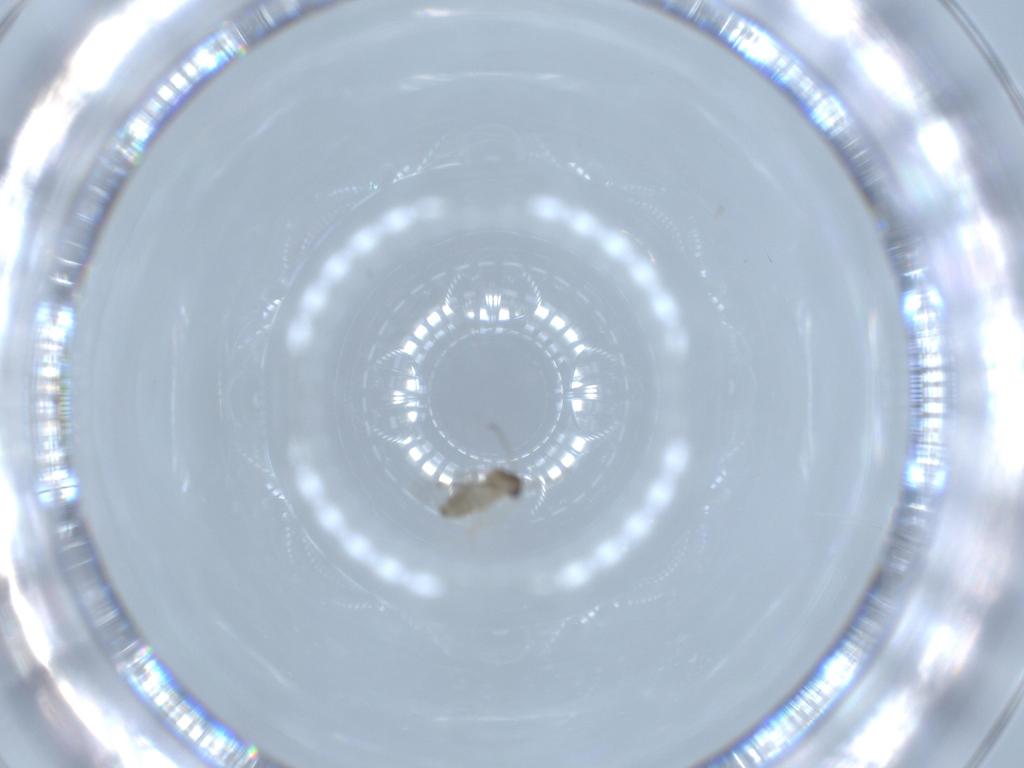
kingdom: Animalia
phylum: Arthropoda
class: Insecta
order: Diptera
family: Cecidomyiidae
